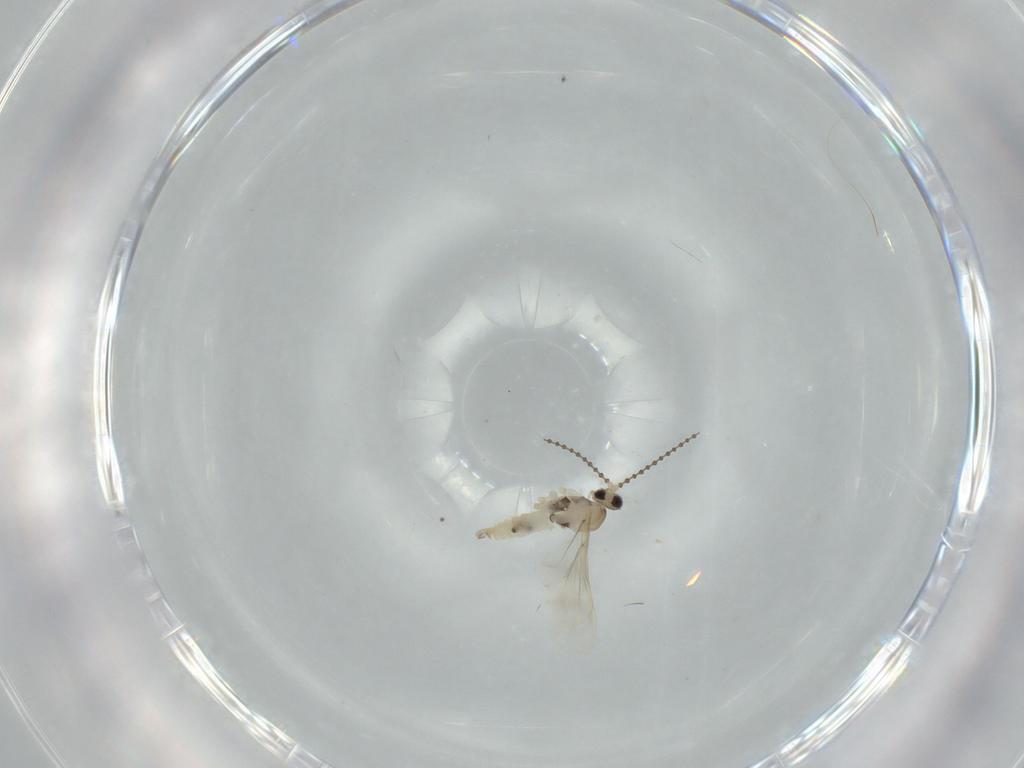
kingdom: Animalia
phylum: Arthropoda
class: Insecta
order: Diptera
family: Cecidomyiidae
